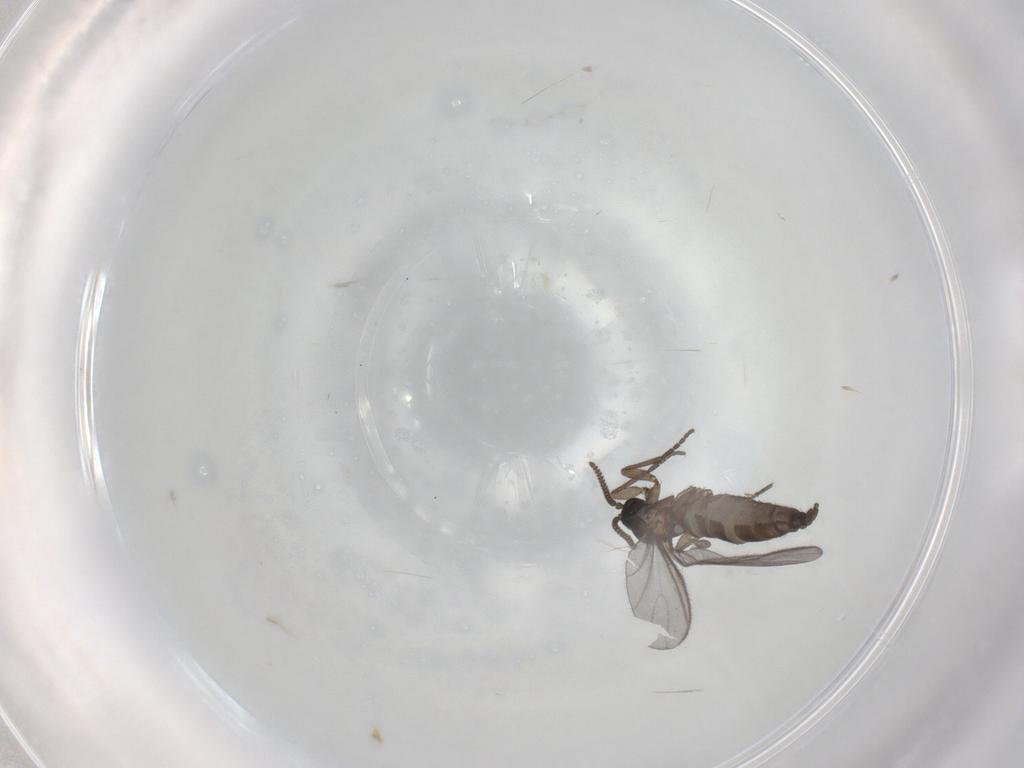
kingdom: Animalia
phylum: Arthropoda
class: Insecta
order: Diptera
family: Sciaridae
